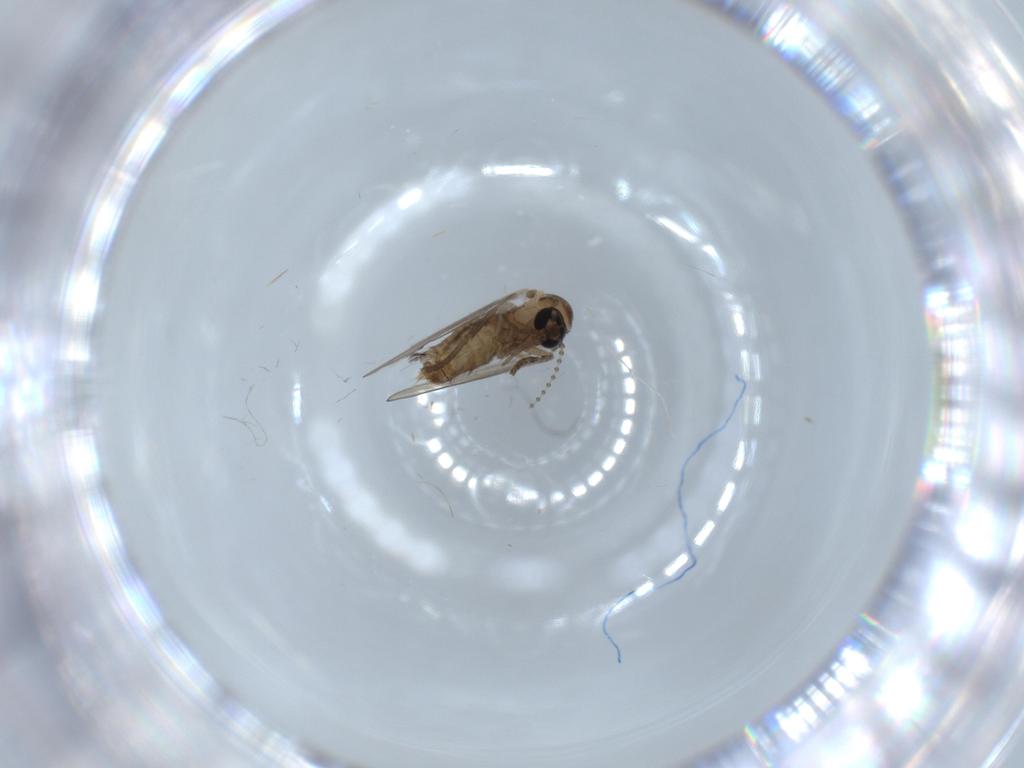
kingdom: Animalia
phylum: Arthropoda
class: Insecta
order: Diptera
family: Psychodidae
